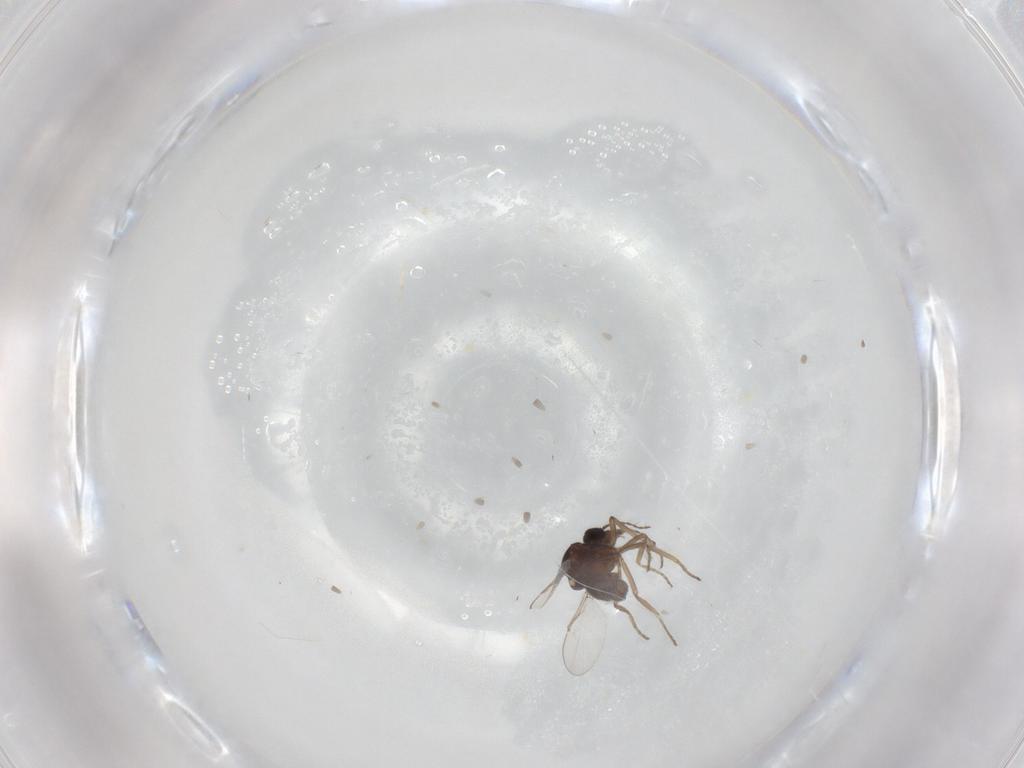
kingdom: Animalia
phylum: Arthropoda
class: Insecta
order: Diptera
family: Ceratopogonidae
